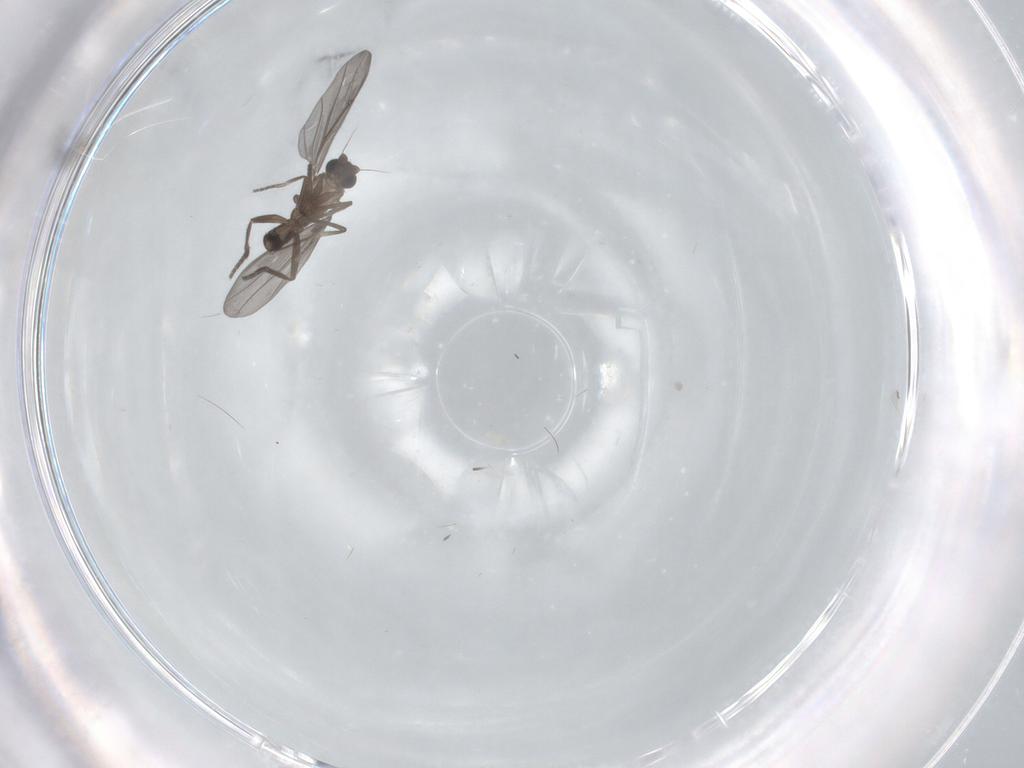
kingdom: Animalia
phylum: Arthropoda
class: Insecta
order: Diptera
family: Phoridae
